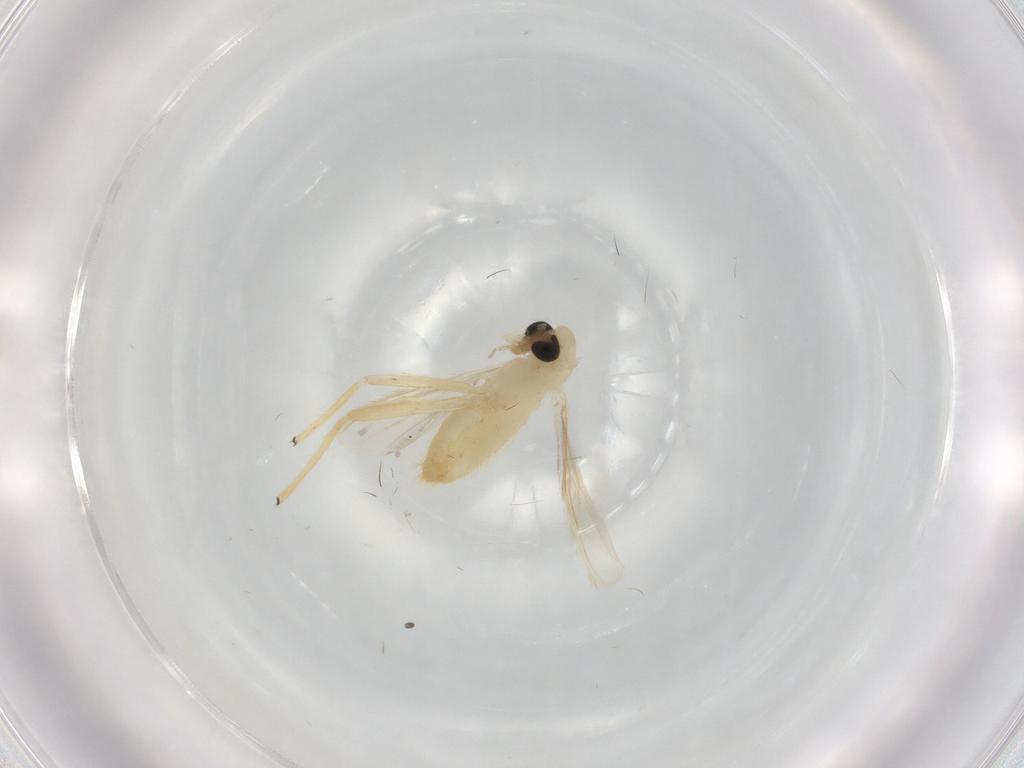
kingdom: Animalia
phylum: Arthropoda
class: Insecta
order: Diptera
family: Chironomidae
